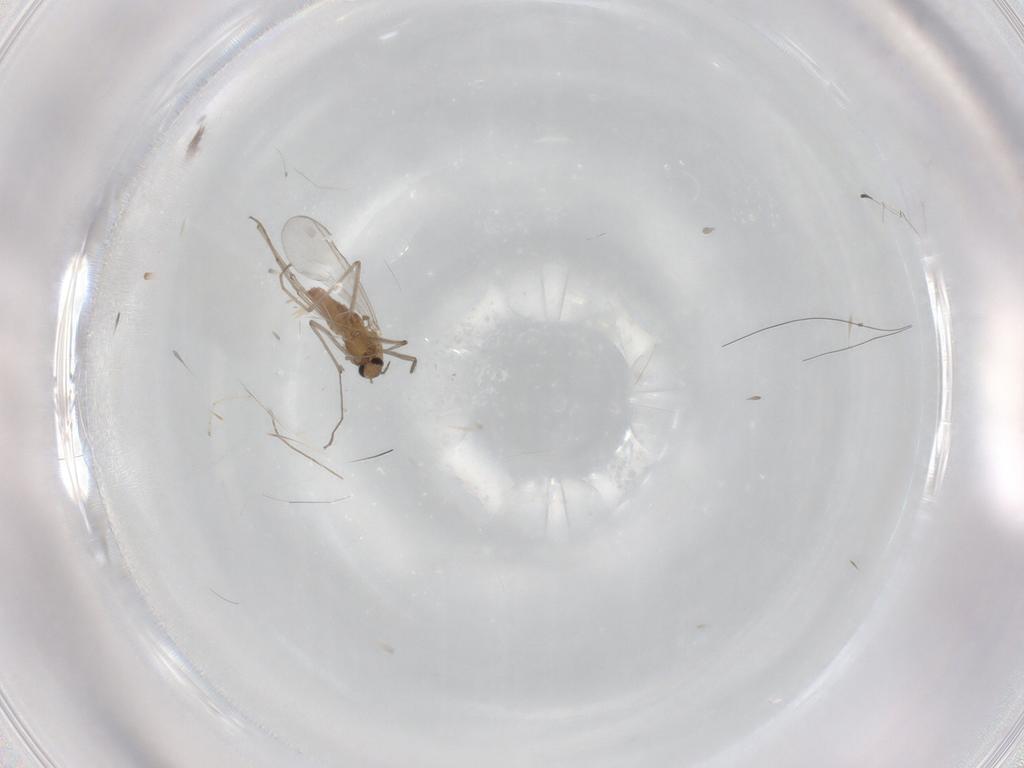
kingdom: Animalia
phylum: Arthropoda
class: Insecta
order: Diptera
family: Chironomidae
